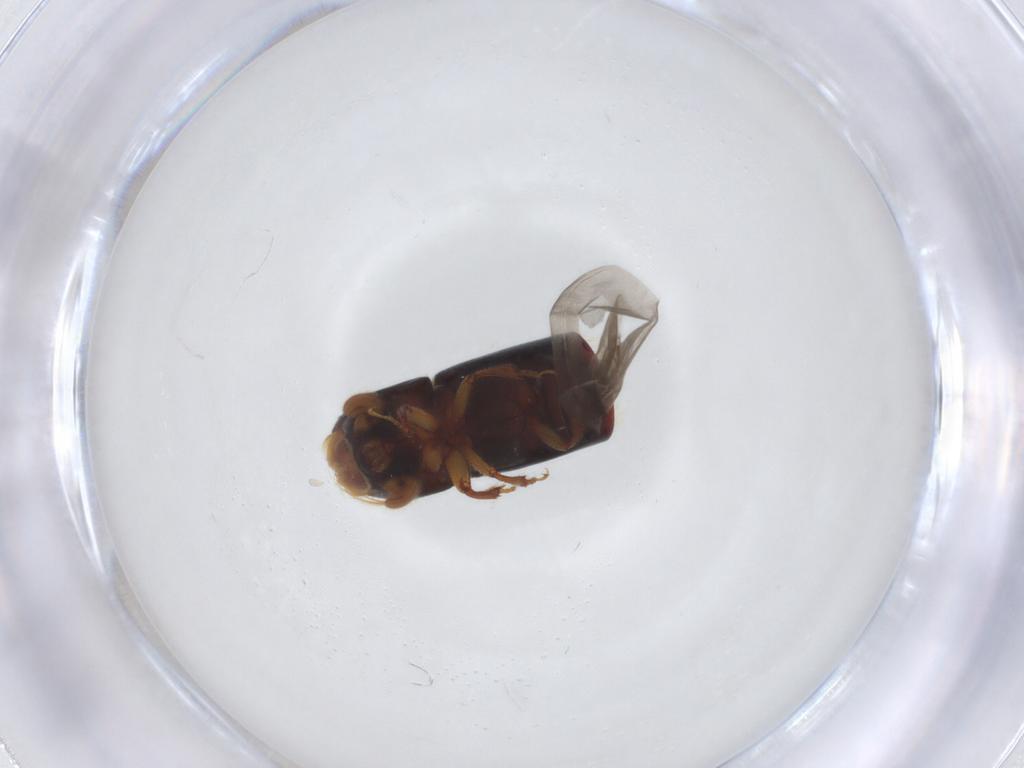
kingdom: Animalia
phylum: Arthropoda
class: Insecta
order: Coleoptera
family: Curculionidae
